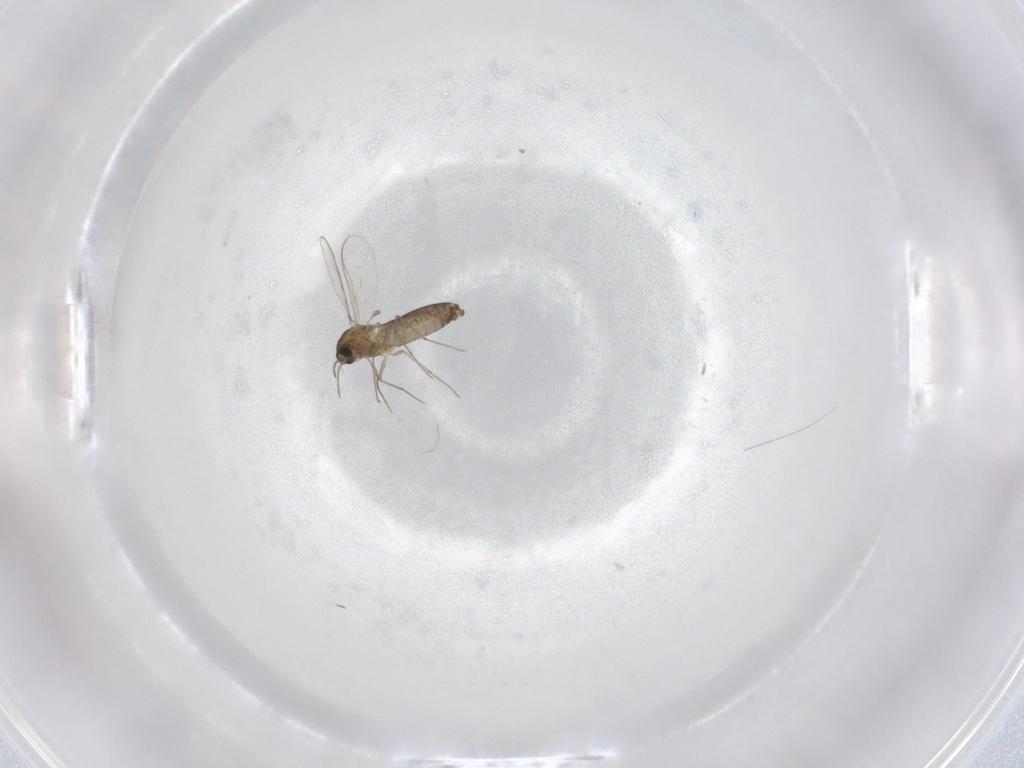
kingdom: Animalia
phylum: Arthropoda
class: Insecta
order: Diptera
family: Chironomidae
